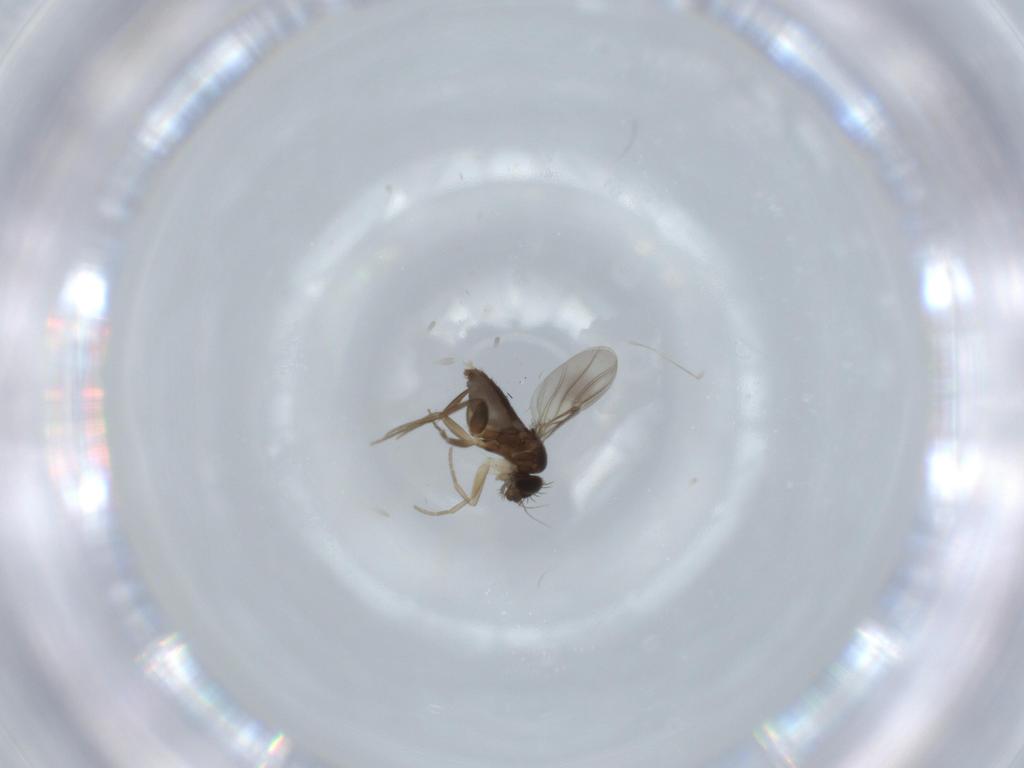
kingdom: Animalia
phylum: Arthropoda
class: Insecta
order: Diptera
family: Phoridae
